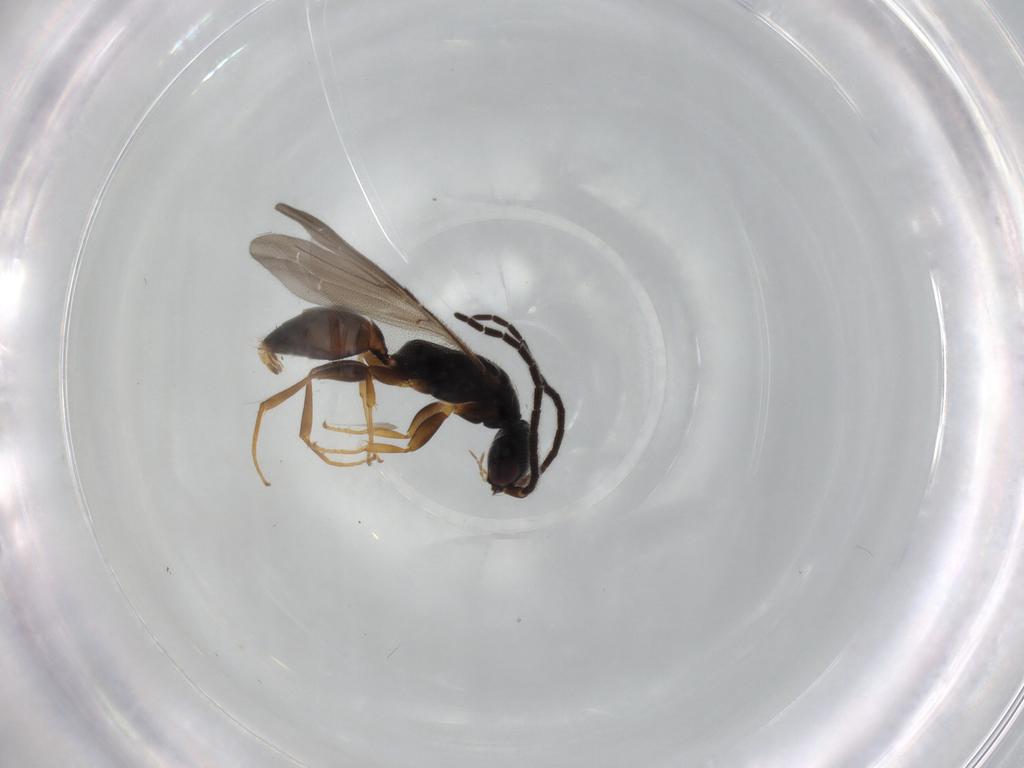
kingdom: Animalia
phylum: Arthropoda
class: Insecta
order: Hymenoptera
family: Bethylidae
